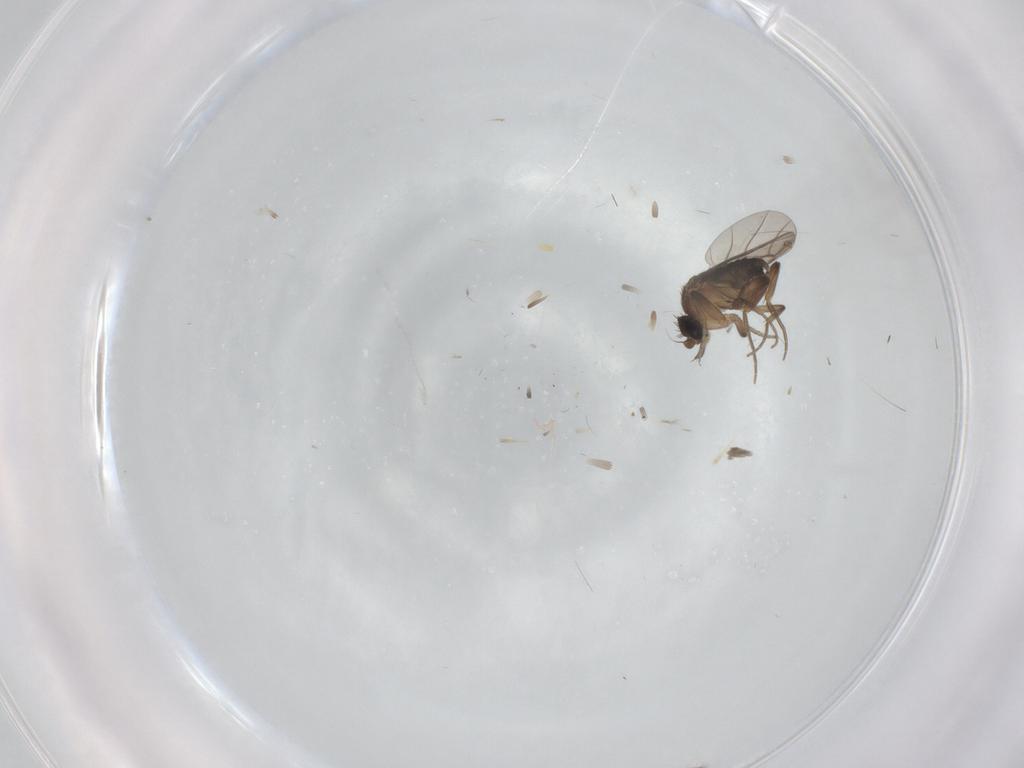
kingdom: Animalia
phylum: Arthropoda
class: Insecta
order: Diptera
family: Phoridae
